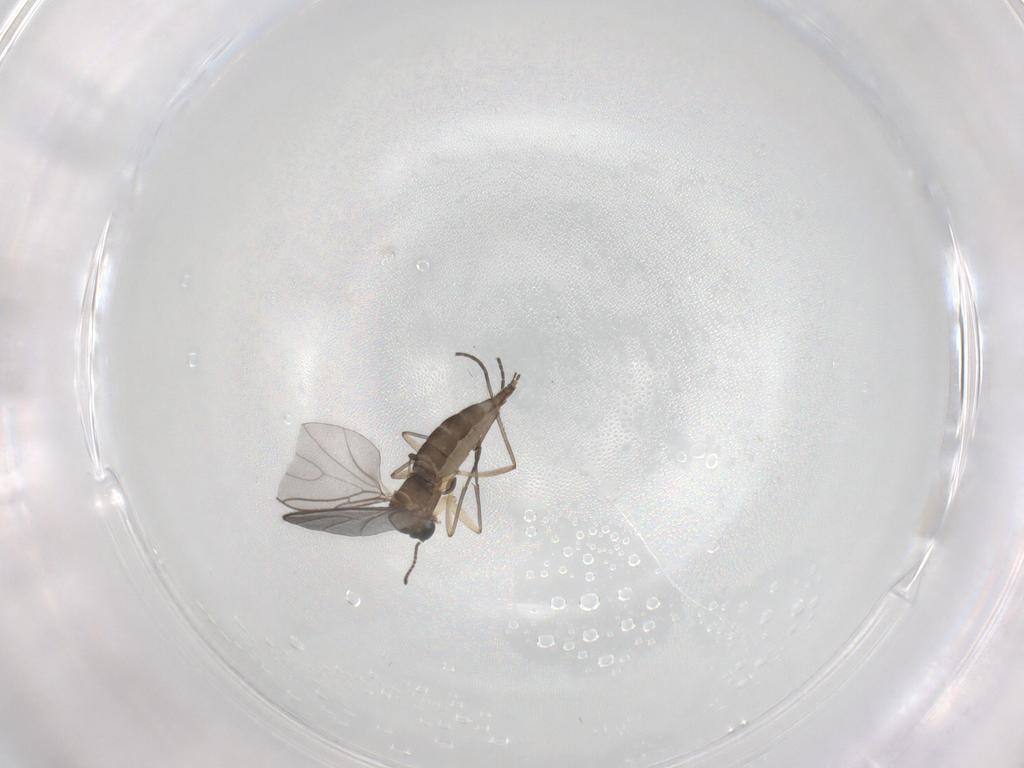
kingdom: Animalia
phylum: Arthropoda
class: Insecta
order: Diptera
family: Sciaridae
